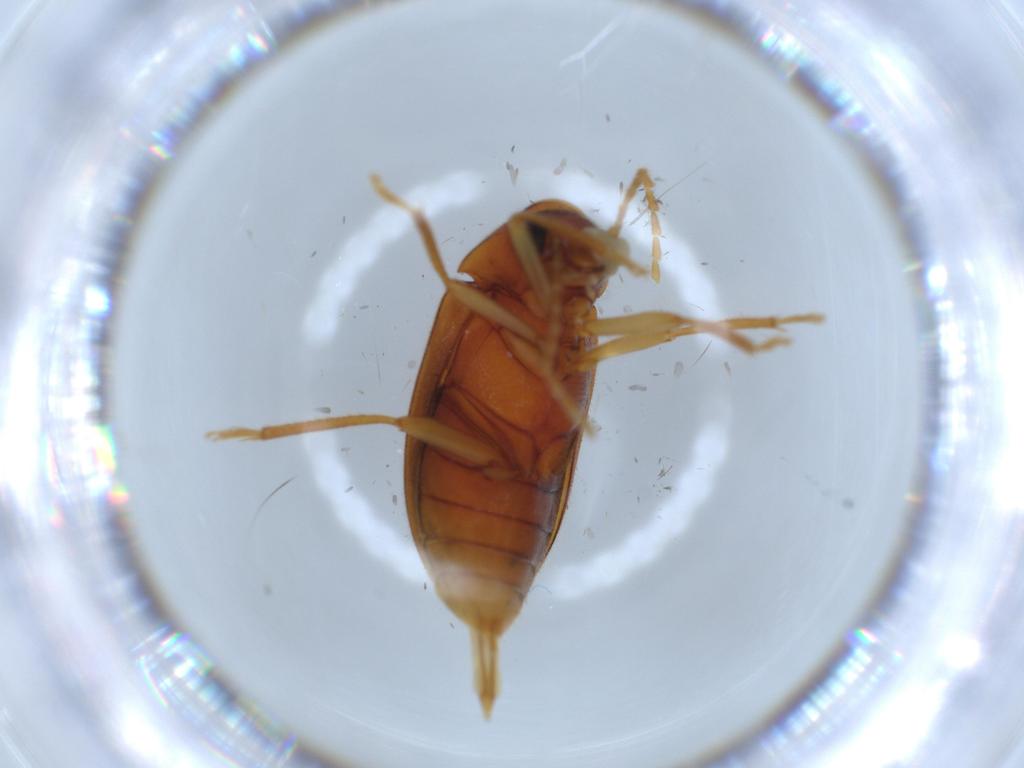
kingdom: Animalia
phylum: Arthropoda
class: Insecta
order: Coleoptera
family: Ptilodactylidae
